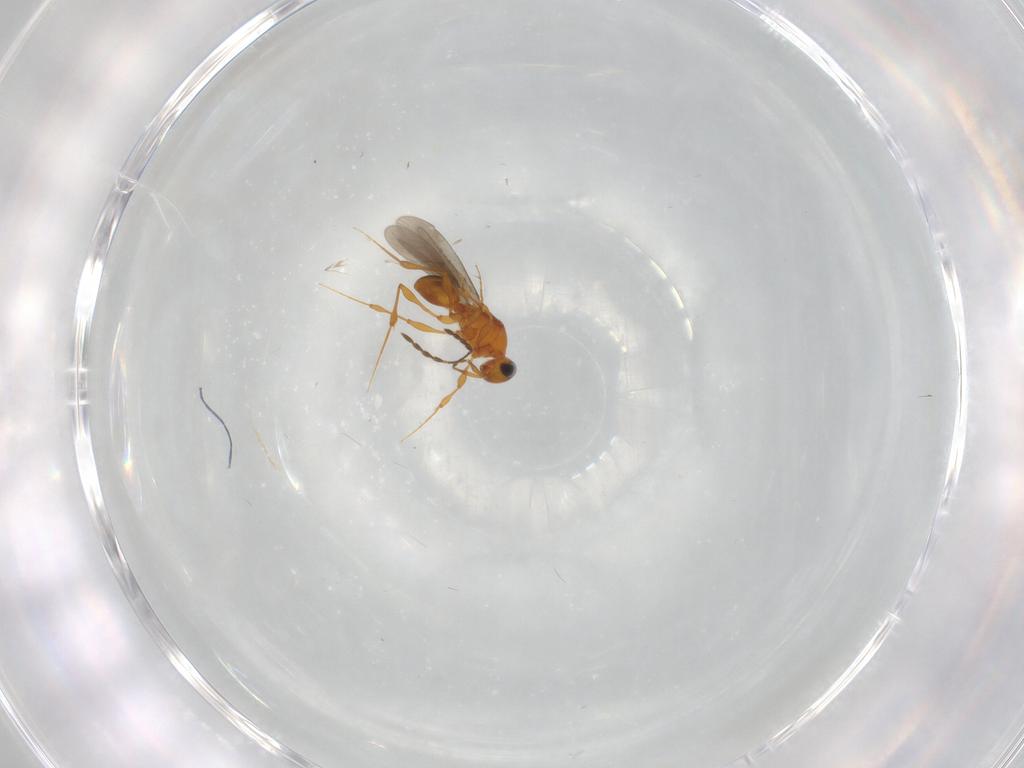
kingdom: Animalia
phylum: Arthropoda
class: Insecta
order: Hymenoptera
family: Platygastridae
